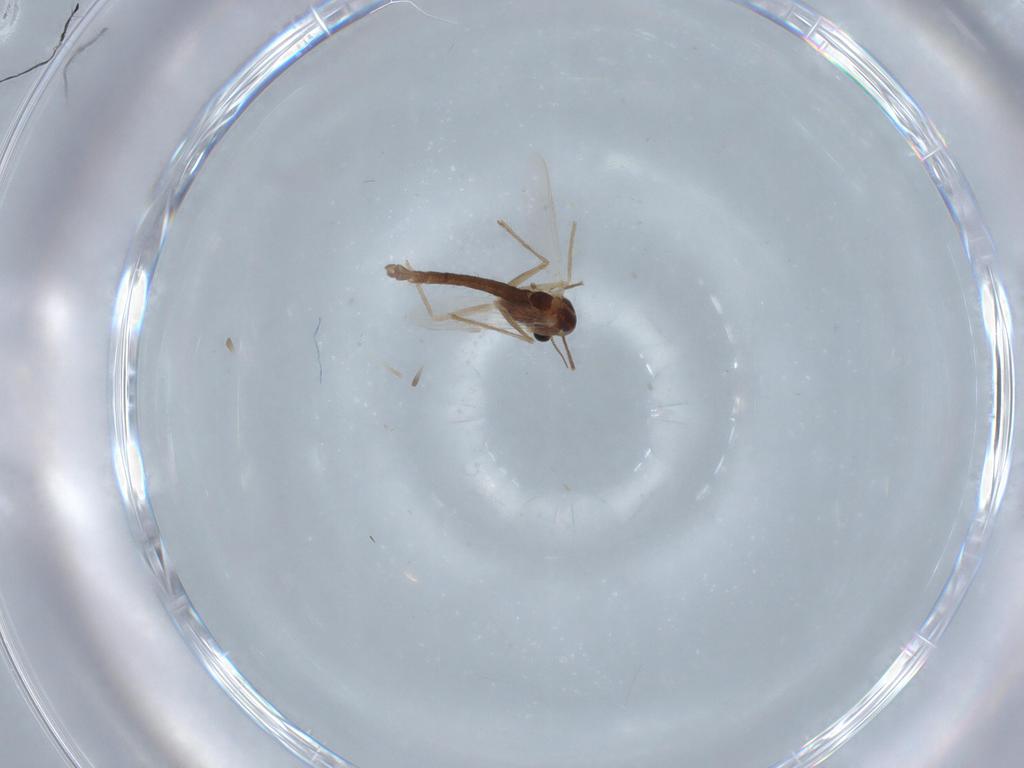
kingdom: Animalia
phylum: Arthropoda
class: Insecta
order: Diptera
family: Chironomidae
